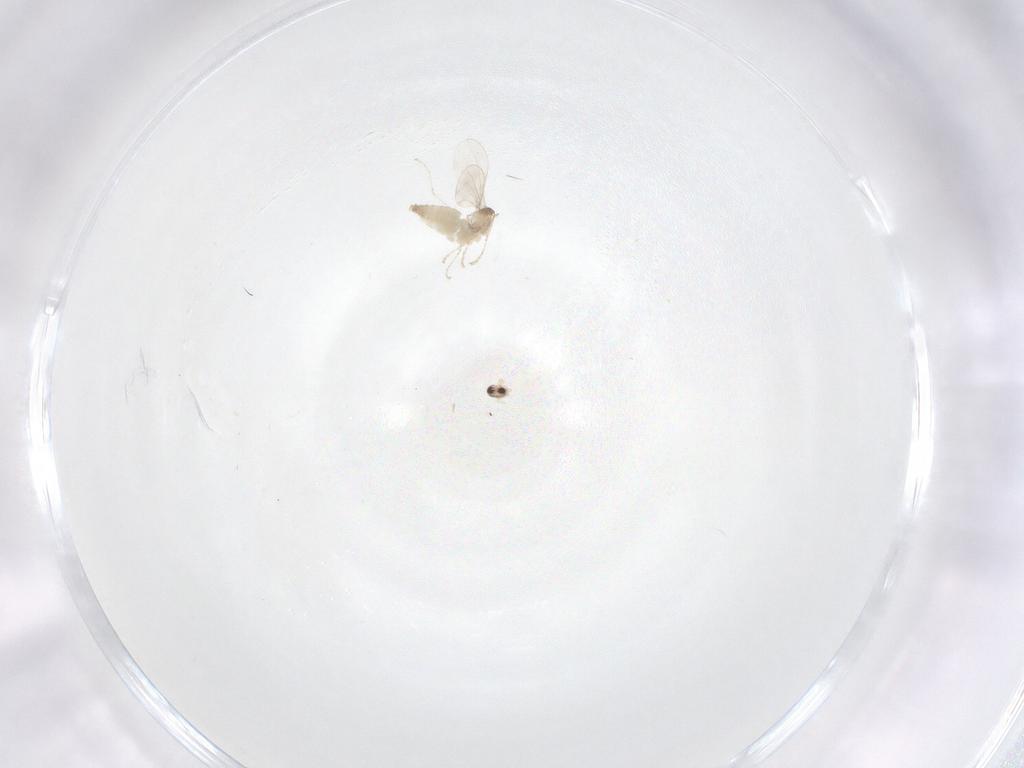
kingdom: Animalia
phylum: Arthropoda
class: Insecta
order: Diptera
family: Cecidomyiidae
